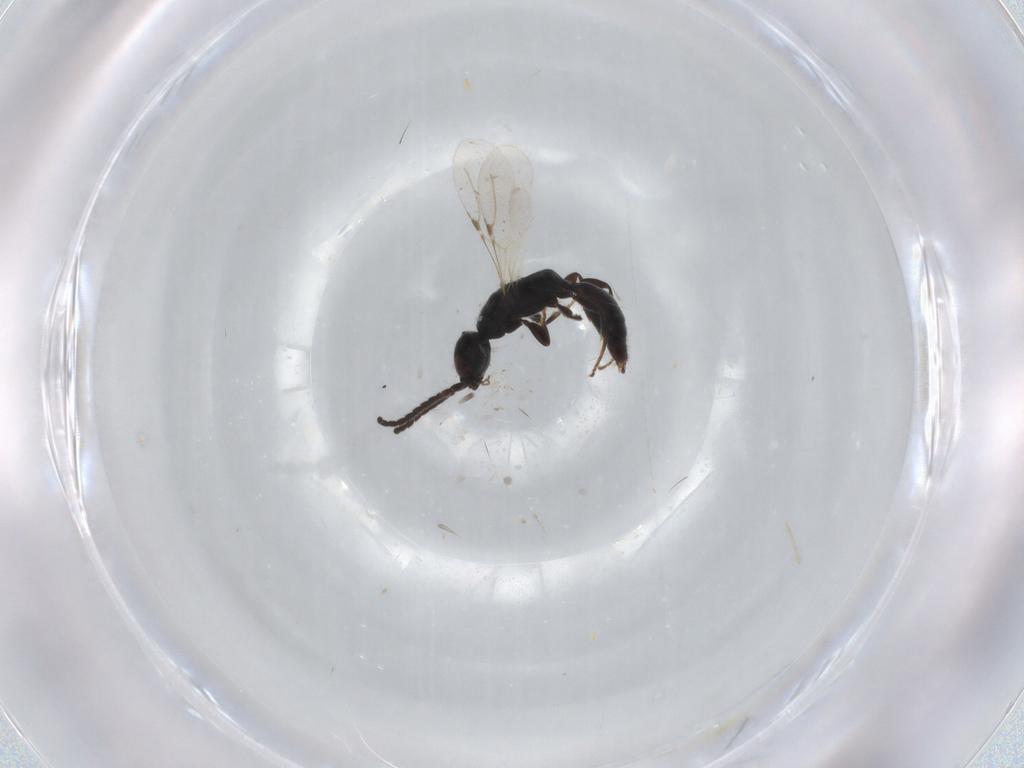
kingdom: Animalia
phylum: Arthropoda
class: Insecta
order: Hymenoptera
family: Bethylidae
